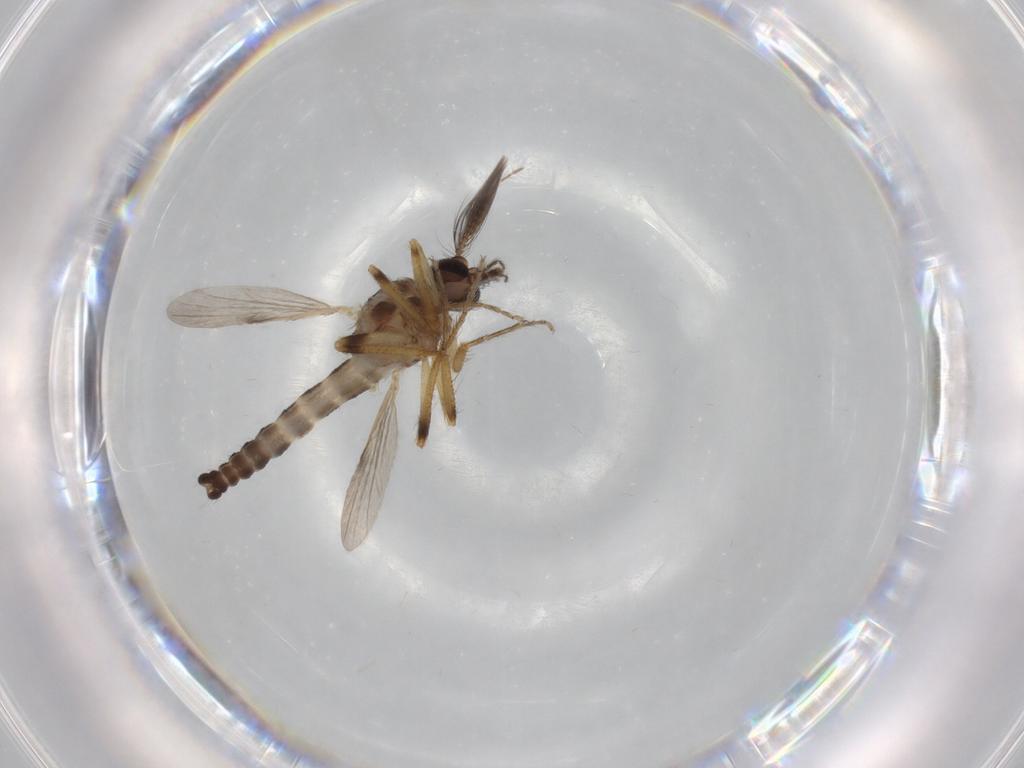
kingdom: Animalia
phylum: Arthropoda
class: Insecta
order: Diptera
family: Ceratopogonidae
